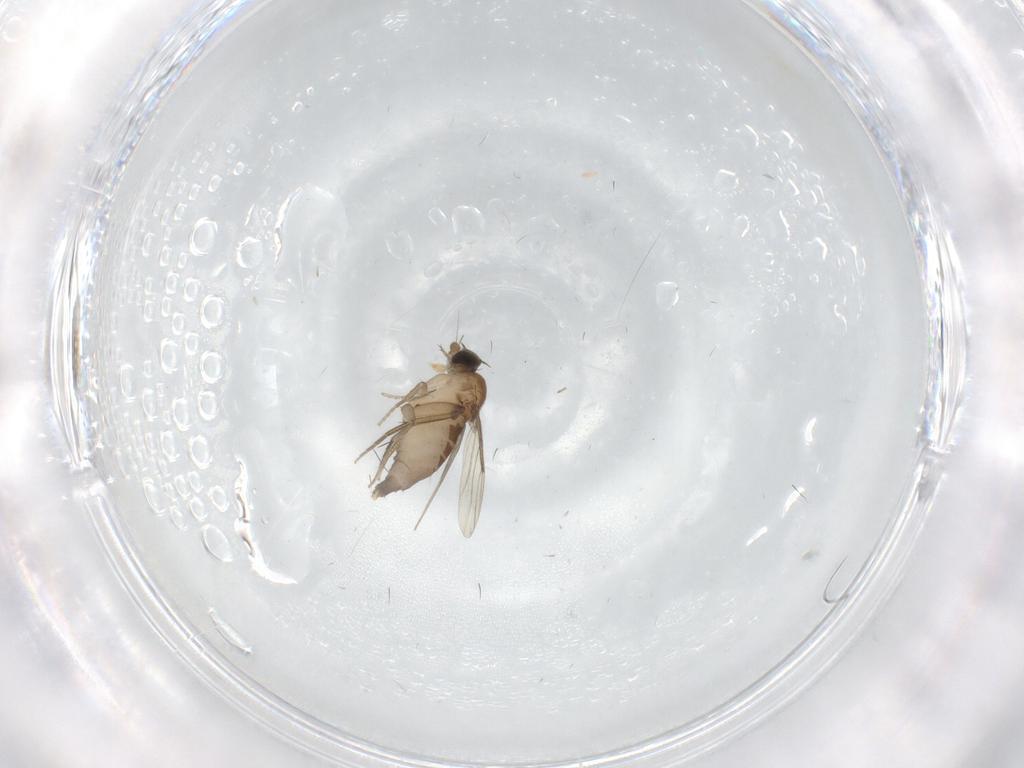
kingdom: Animalia
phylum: Arthropoda
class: Insecta
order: Diptera
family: Phoridae
